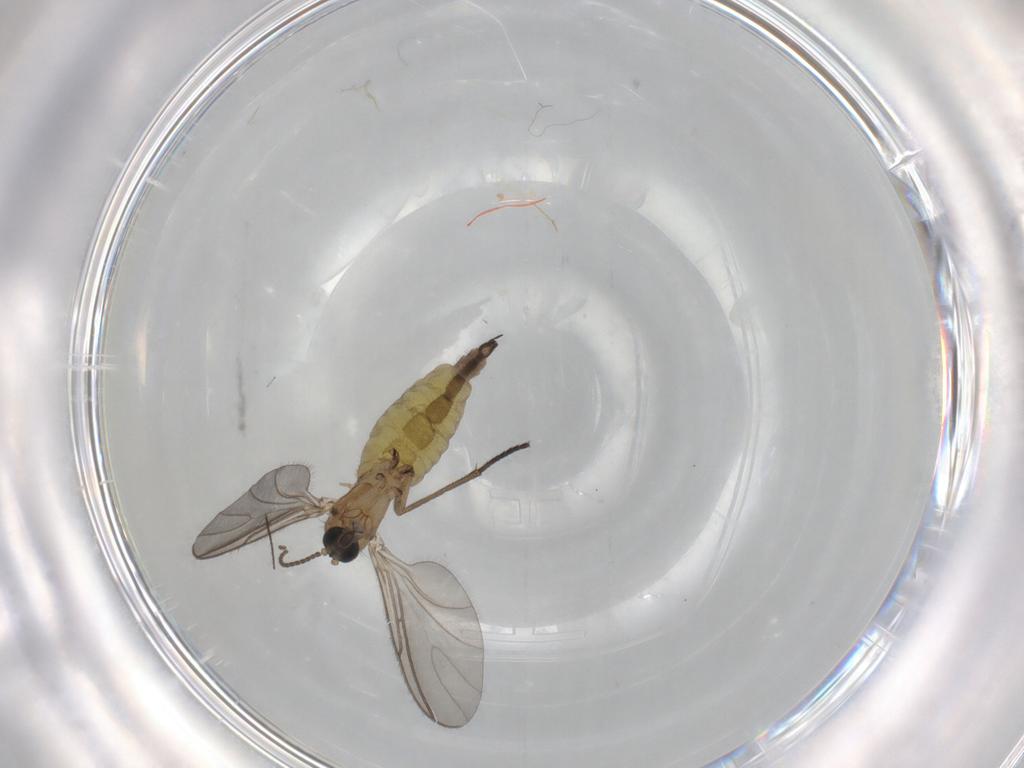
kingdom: Animalia
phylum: Arthropoda
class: Insecta
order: Diptera
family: Sciaridae
